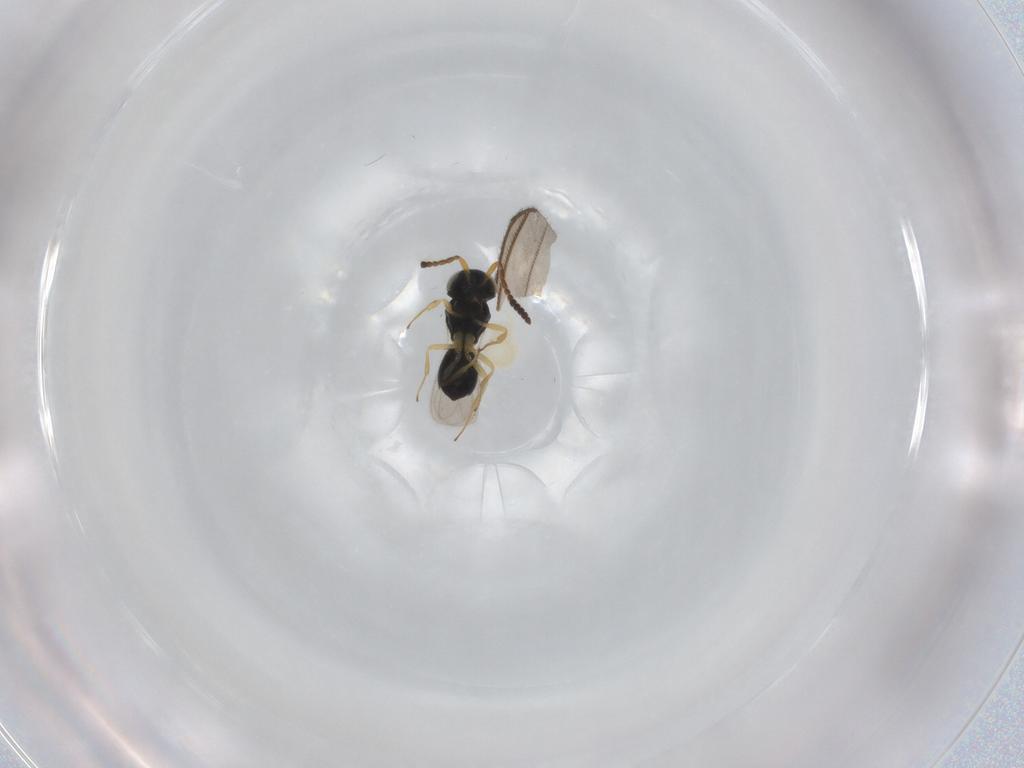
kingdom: Animalia
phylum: Arthropoda
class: Insecta
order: Hymenoptera
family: Scelionidae
